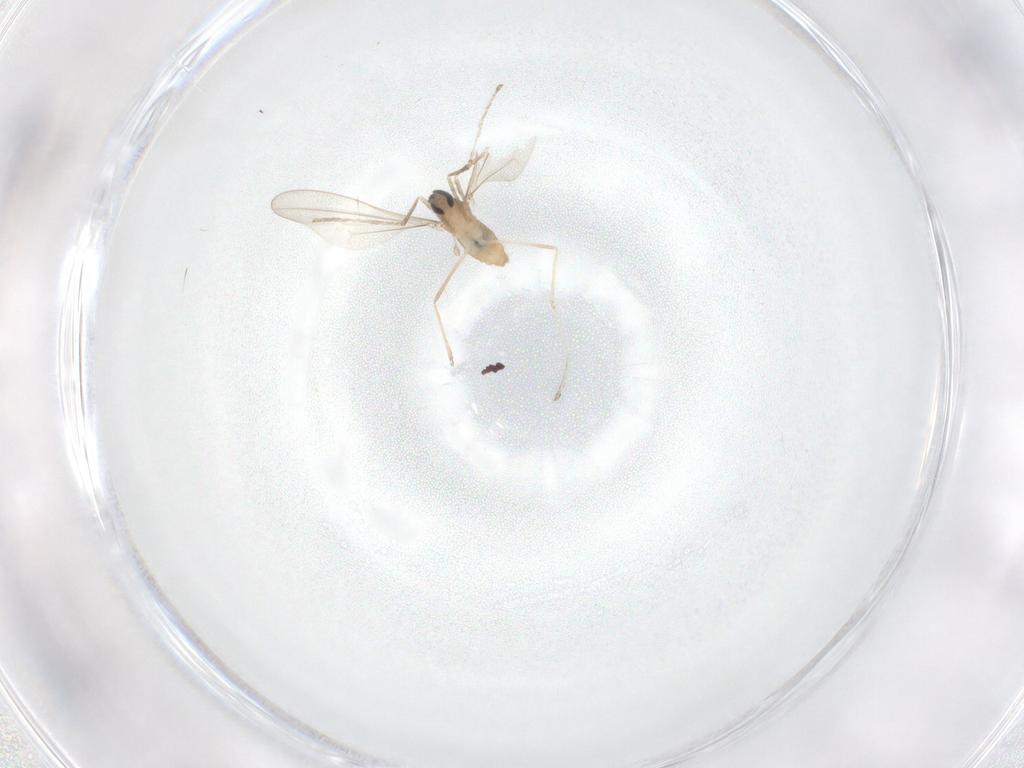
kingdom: Animalia
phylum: Arthropoda
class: Insecta
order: Diptera
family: Cecidomyiidae
